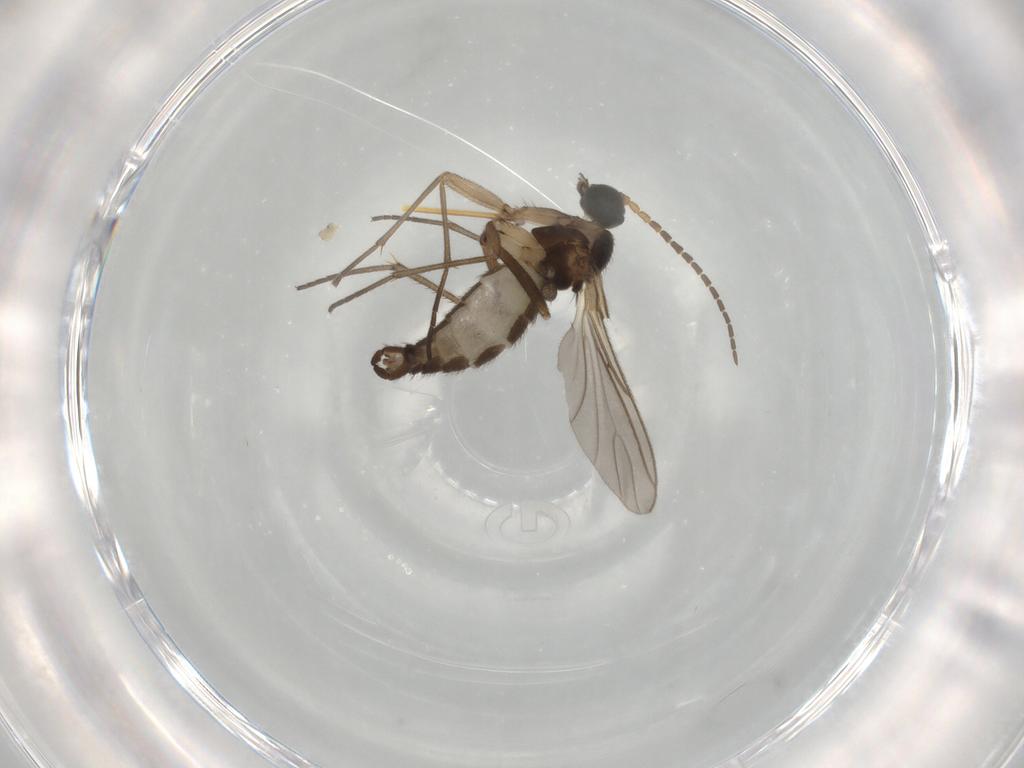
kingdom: Animalia
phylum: Arthropoda
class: Insecta
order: Diptera
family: Sciaridae
